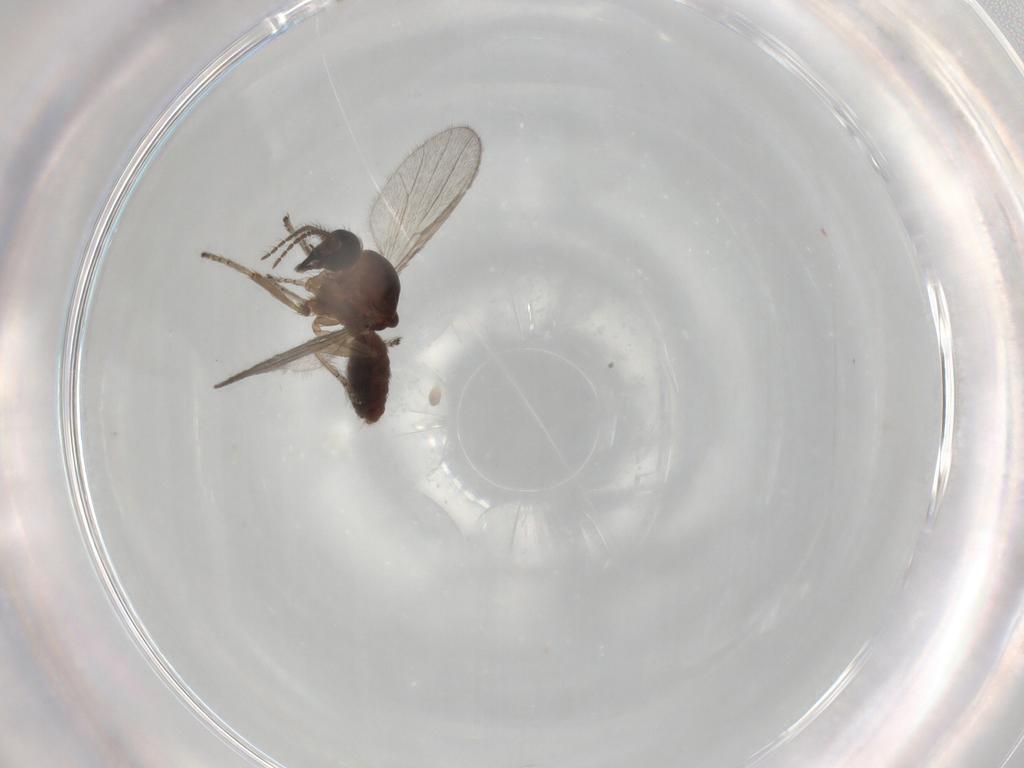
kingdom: Animalia
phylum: Arthropoda
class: Insecta
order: Diptera
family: Ceratopogonidae
